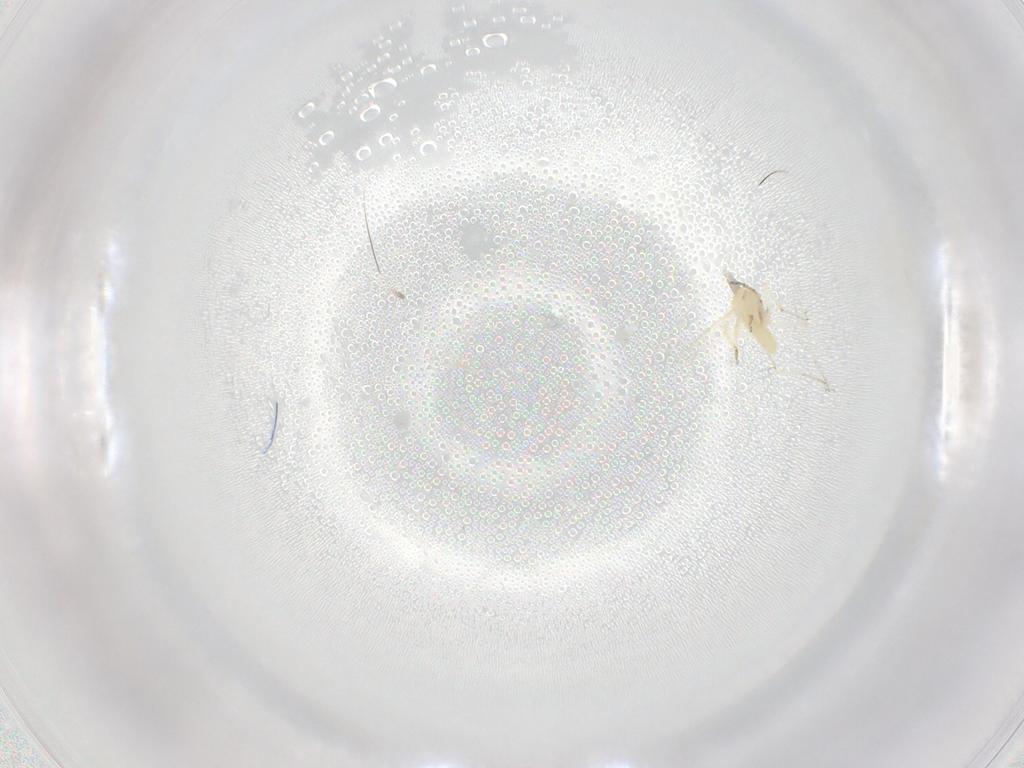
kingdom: Animalia
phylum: Arthropoda
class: Insecta
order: Diptera
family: Ceratopogonidae
